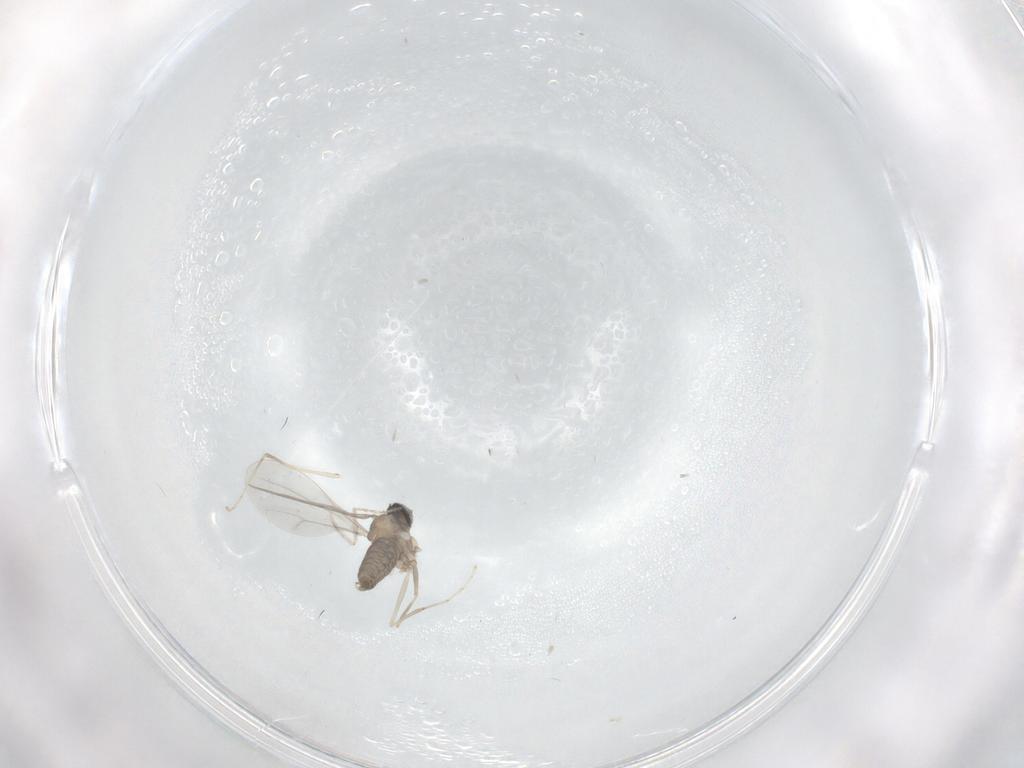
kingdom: Animalia
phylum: Arthropoda
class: Insecta
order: Diptera
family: Cecidomyiidae
